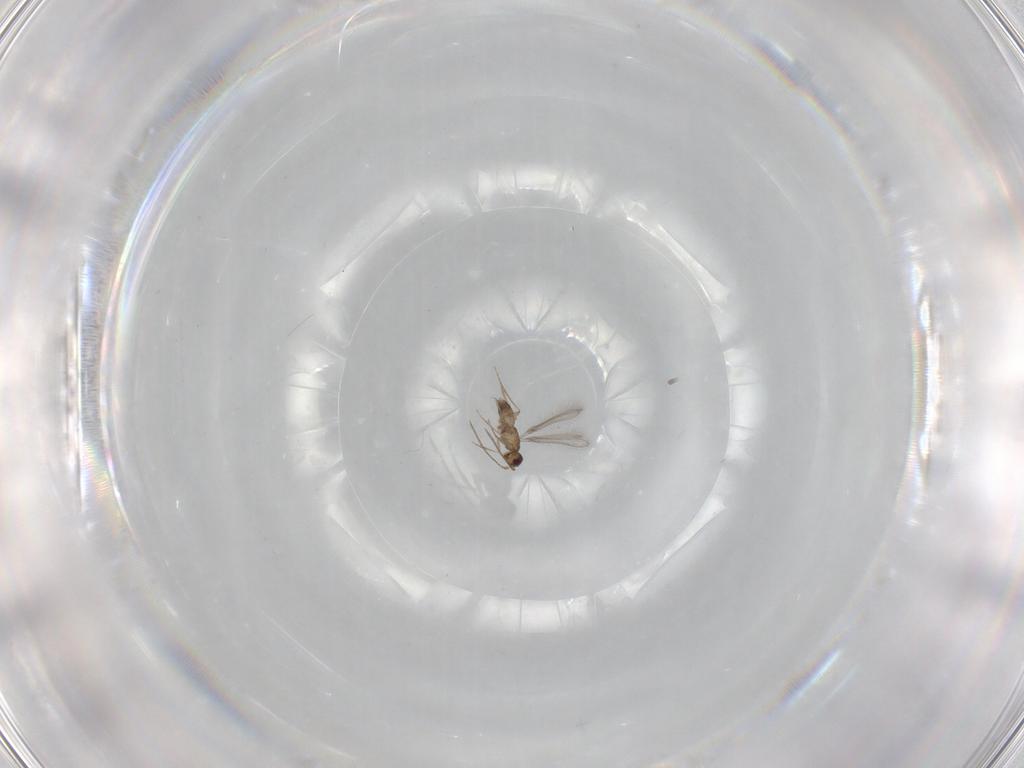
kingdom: Animalia
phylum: Arthropoda
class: Insecta
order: Hymenoptera
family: Mymaridae
